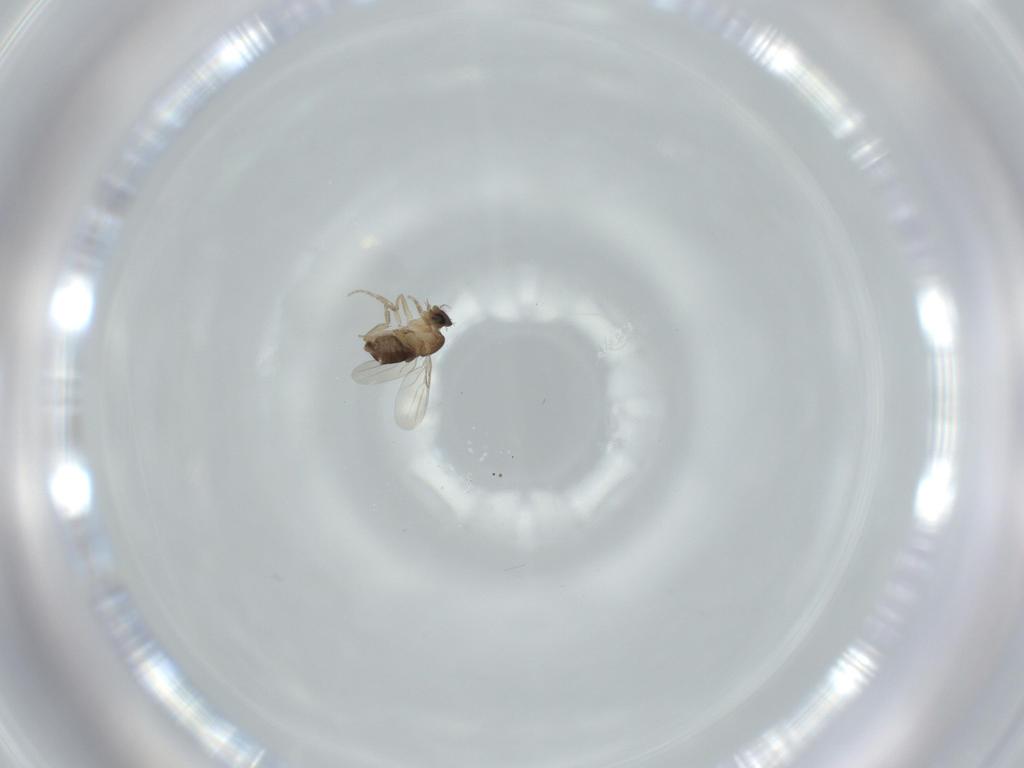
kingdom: Animalia
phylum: Arthropoda
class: Insecta
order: Diptera
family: Phoridae
